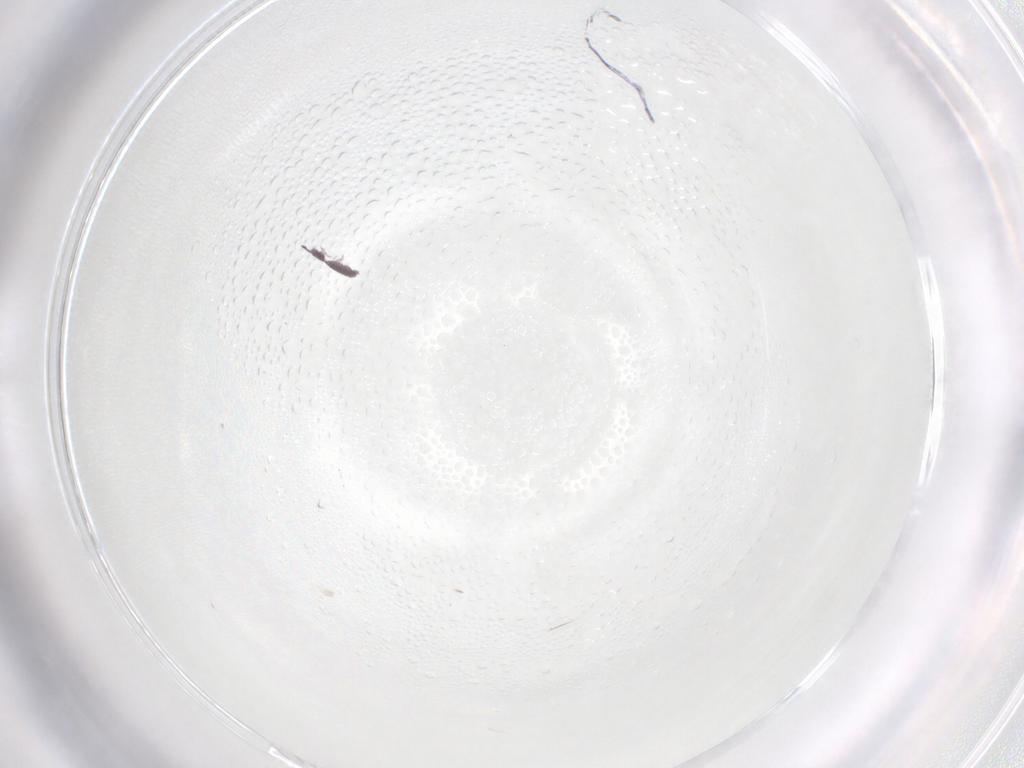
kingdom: Animalia
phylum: Arthropoda
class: Collembola
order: Poduromorpha
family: Hypogastruridae
